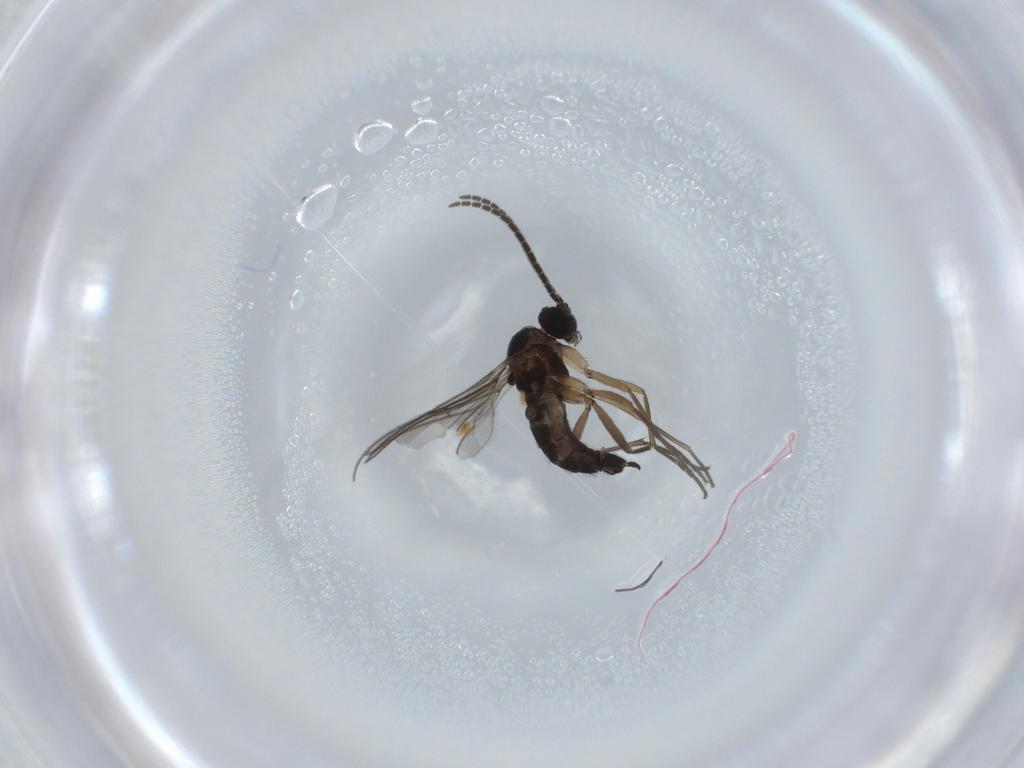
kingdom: Animalia
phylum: Arthropoda
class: Insecta
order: Diptera
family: Sciaridae
